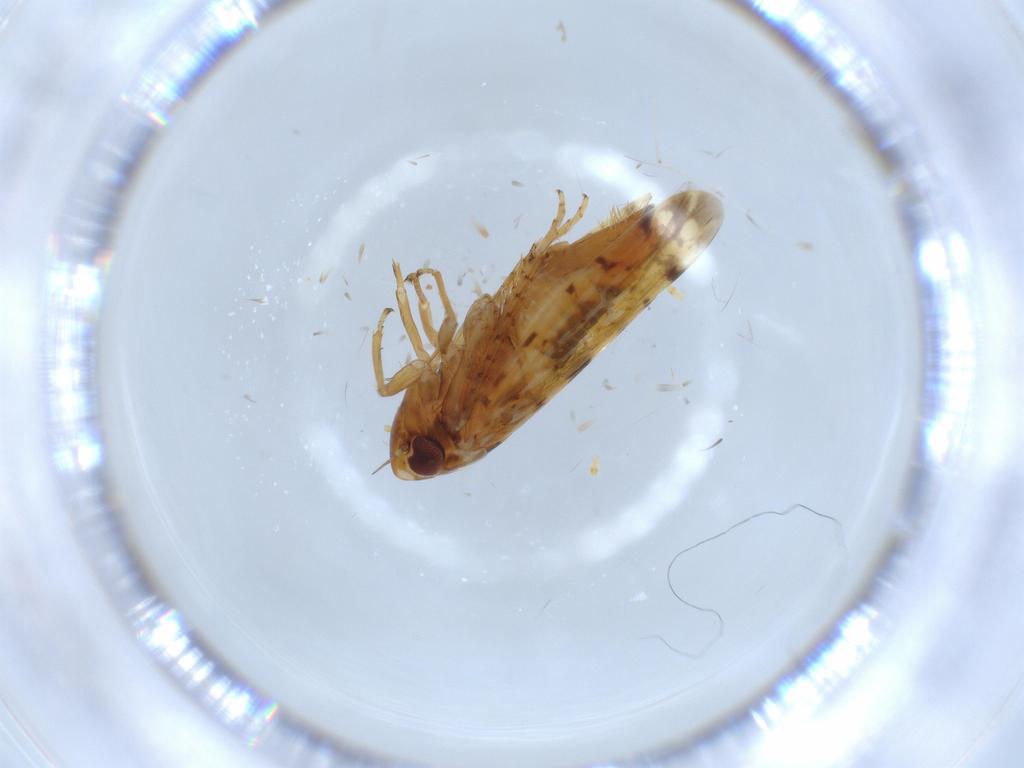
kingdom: Animalia
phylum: Arthropoda
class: Insecta
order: Hemiptera
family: Cicadellidae
